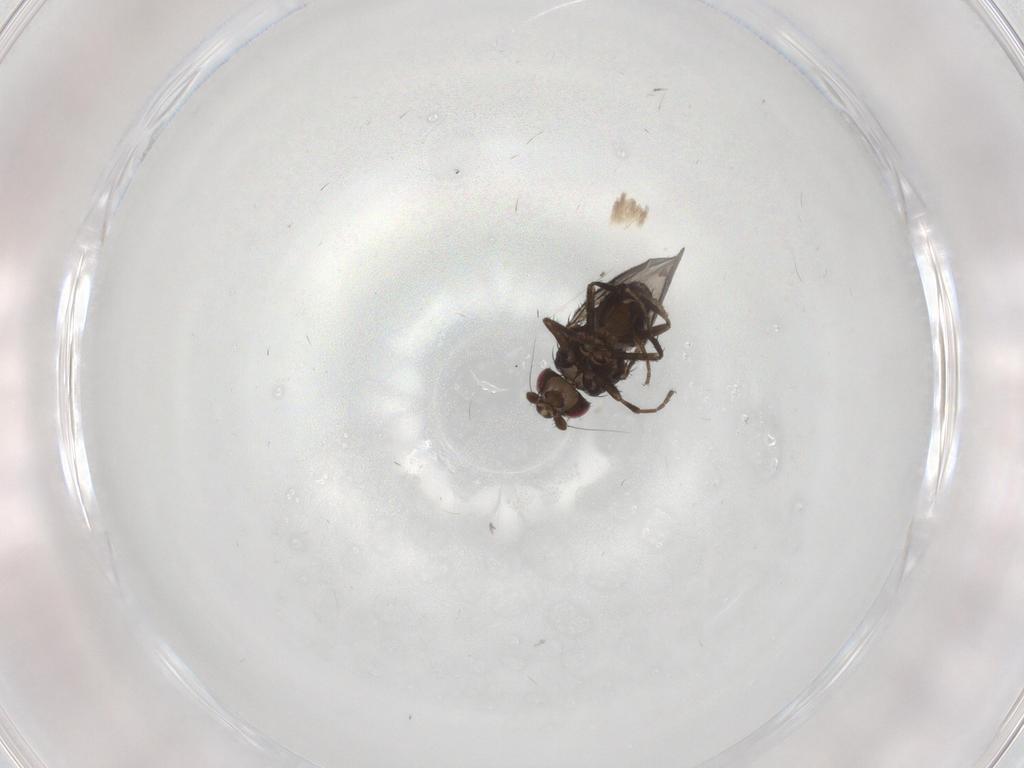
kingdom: Animalia
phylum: Arthropoda
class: Insecta
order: Diptera
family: Sphaeroceridae
